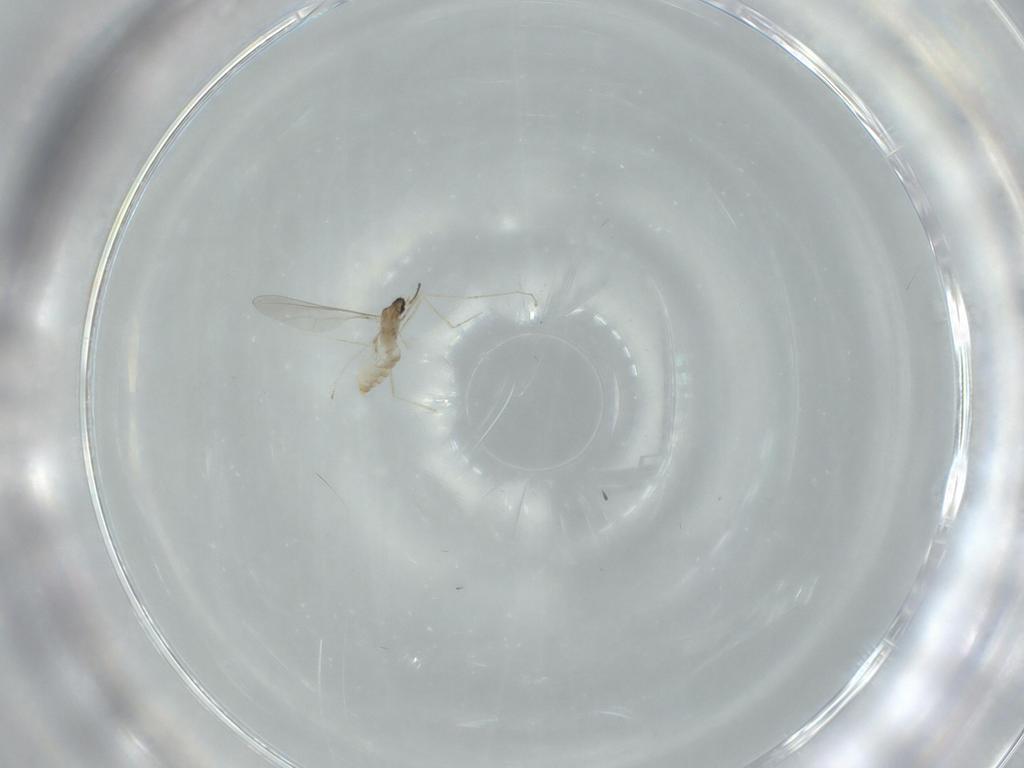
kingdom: Animalia
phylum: Arthropoda
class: Insecta
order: Diptera
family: Cecidomyiidae
